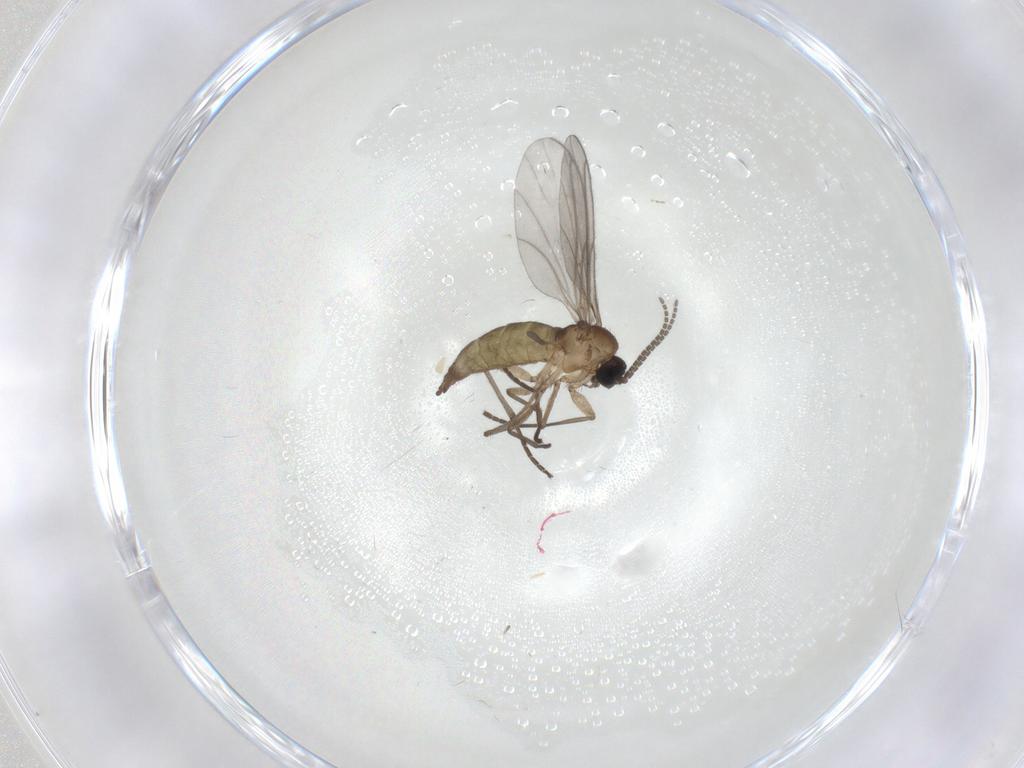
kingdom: Animalia
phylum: Arthropoda
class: Insecta
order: Diptera
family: Ceratopogonidae
